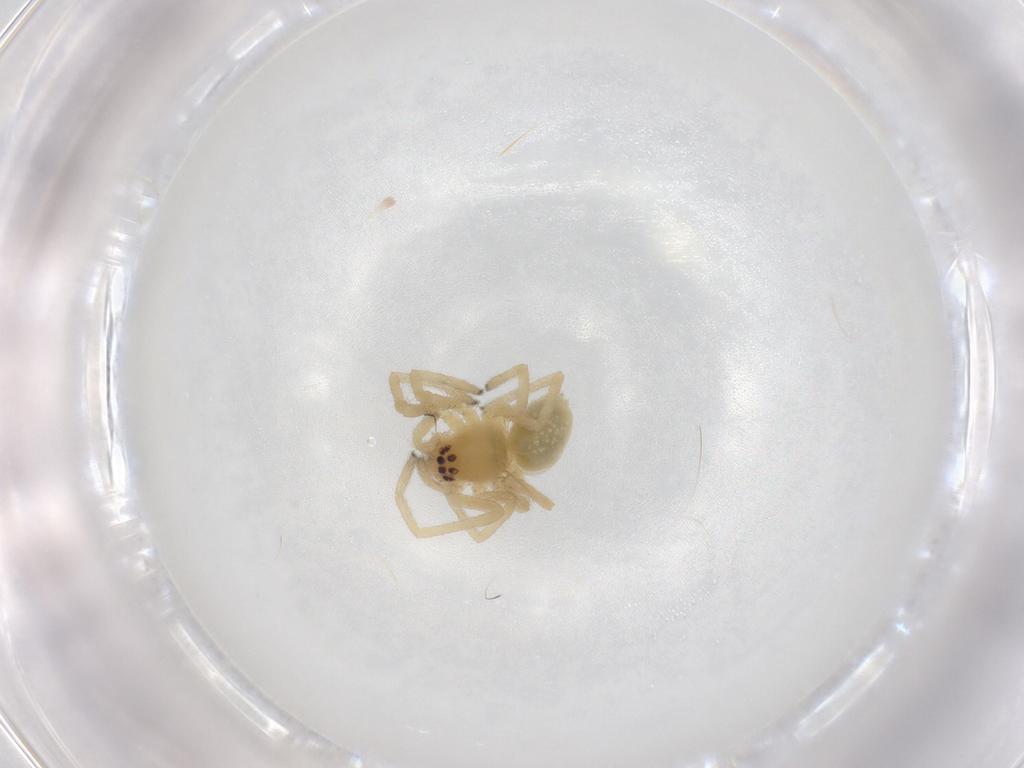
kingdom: Animalia
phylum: Arthropoda
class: Arachnida
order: Araneae
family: Cheiracanthiidae
